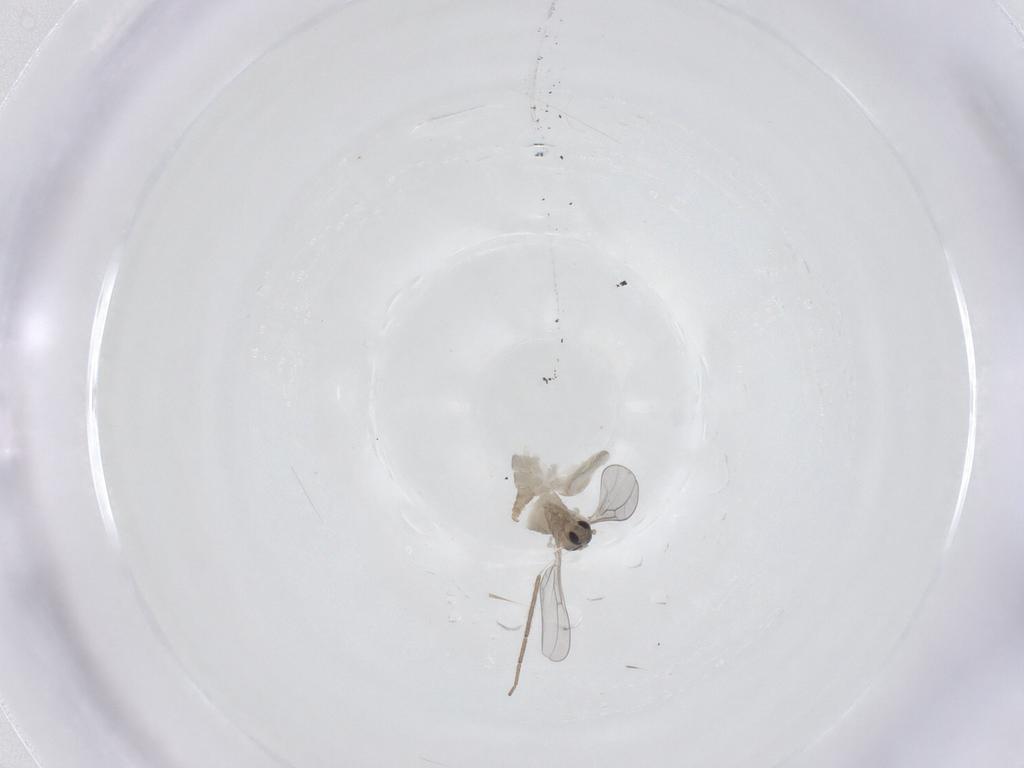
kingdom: Animalia
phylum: Arthropoda
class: Insecta
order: Diptera
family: Cecidomyiidae
